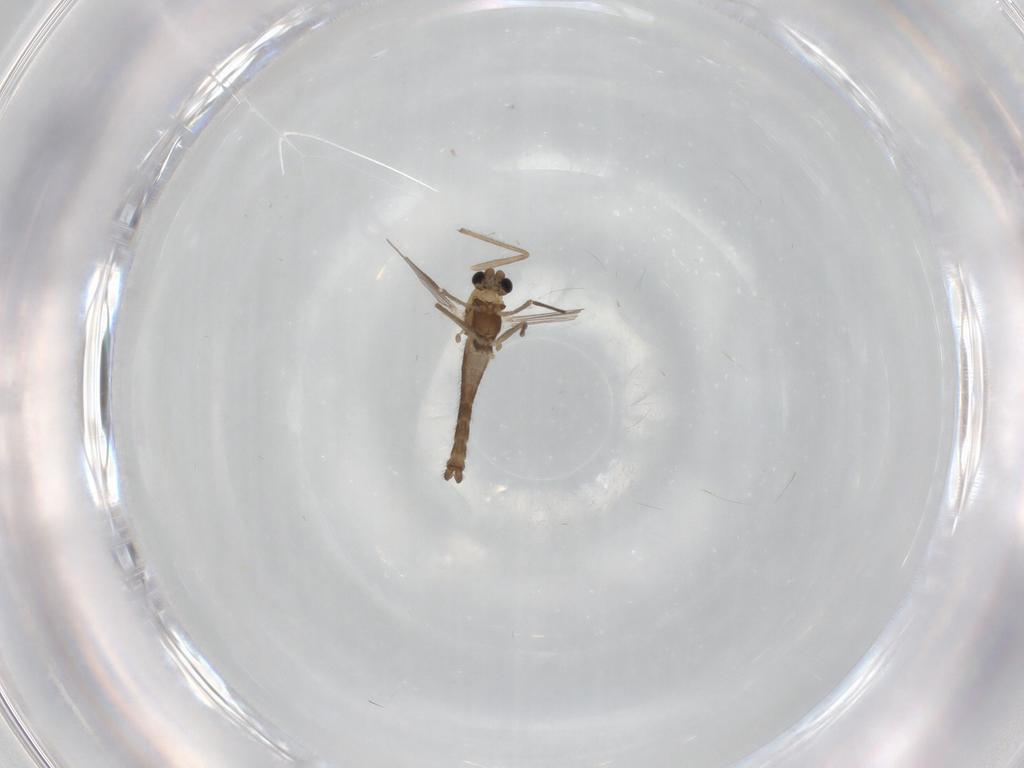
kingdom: Animalia
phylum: Arthropoda
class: Insecta
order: Diptera
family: Chironomidae
